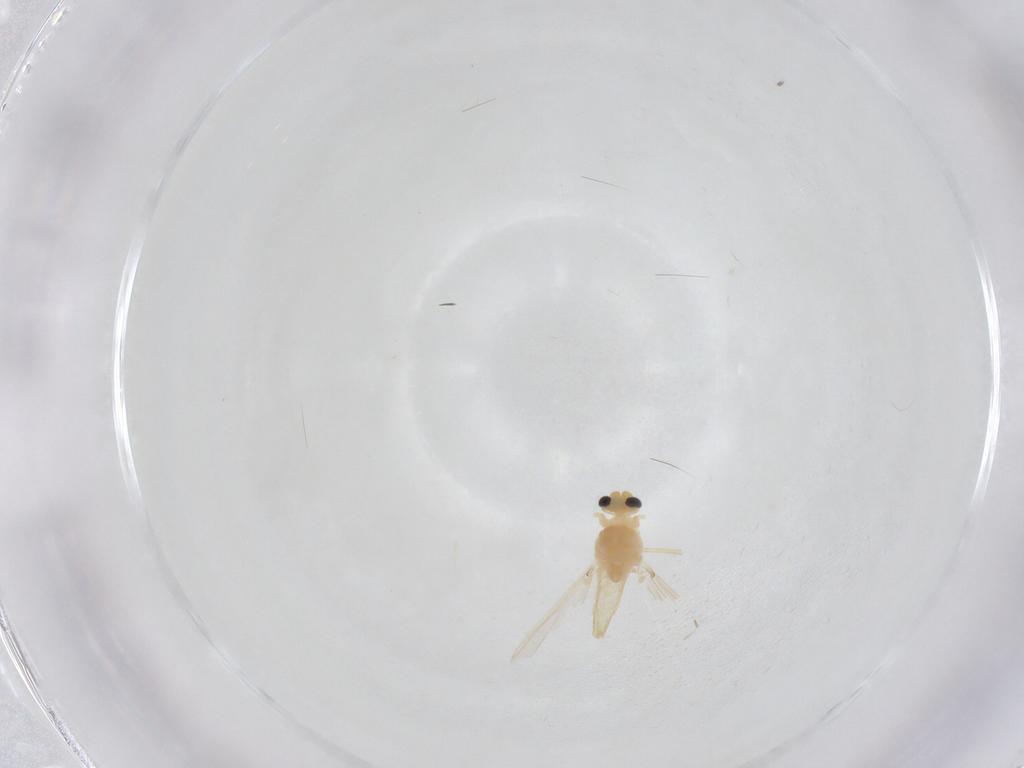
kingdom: Animalia
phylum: Arthropoda
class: Insecta
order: Diptera
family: Chironomidae
